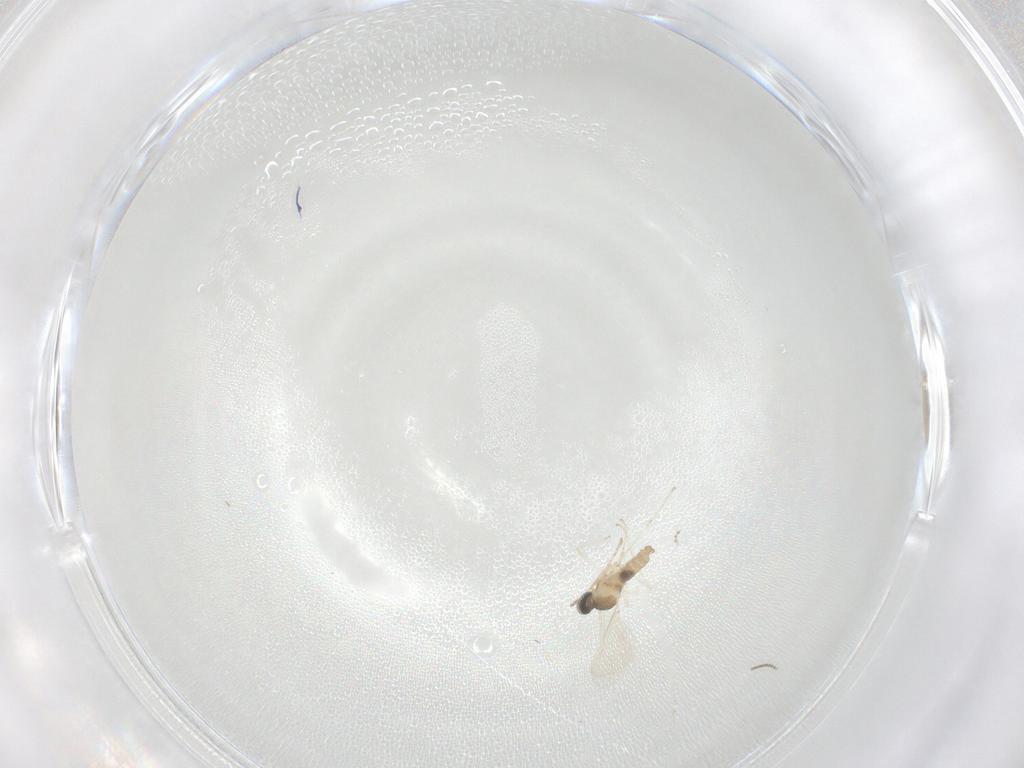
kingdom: Animalia
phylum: Arthropoda
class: Insecta
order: Diptera
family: Cecidomyiidae
